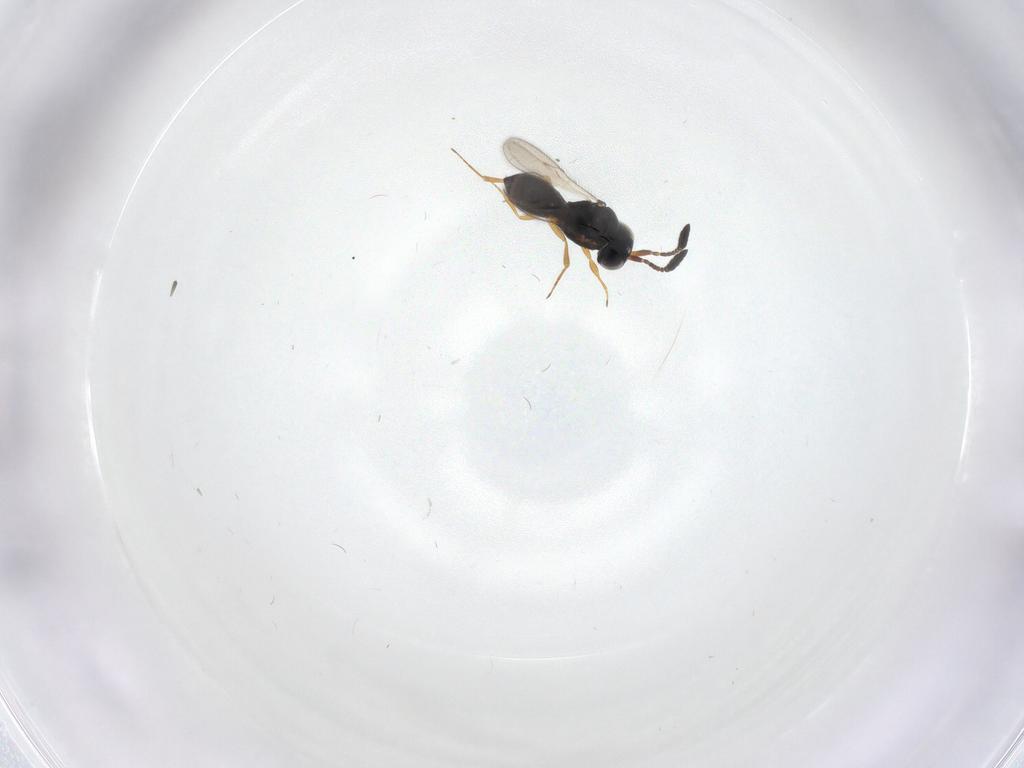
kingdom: Animalia
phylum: Arthropoda
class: Insecta
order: Hymenoptera
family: Scelionidae
